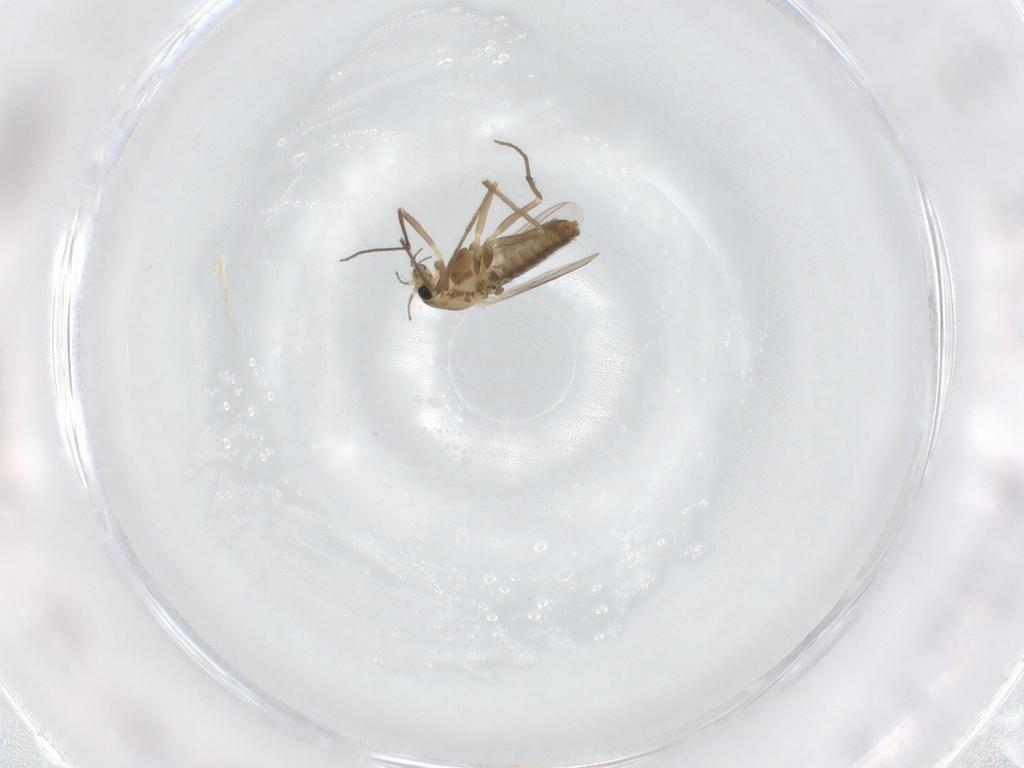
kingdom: Animalia
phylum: Arthropoda
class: Insecta
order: Diptera
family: Chironomidae
